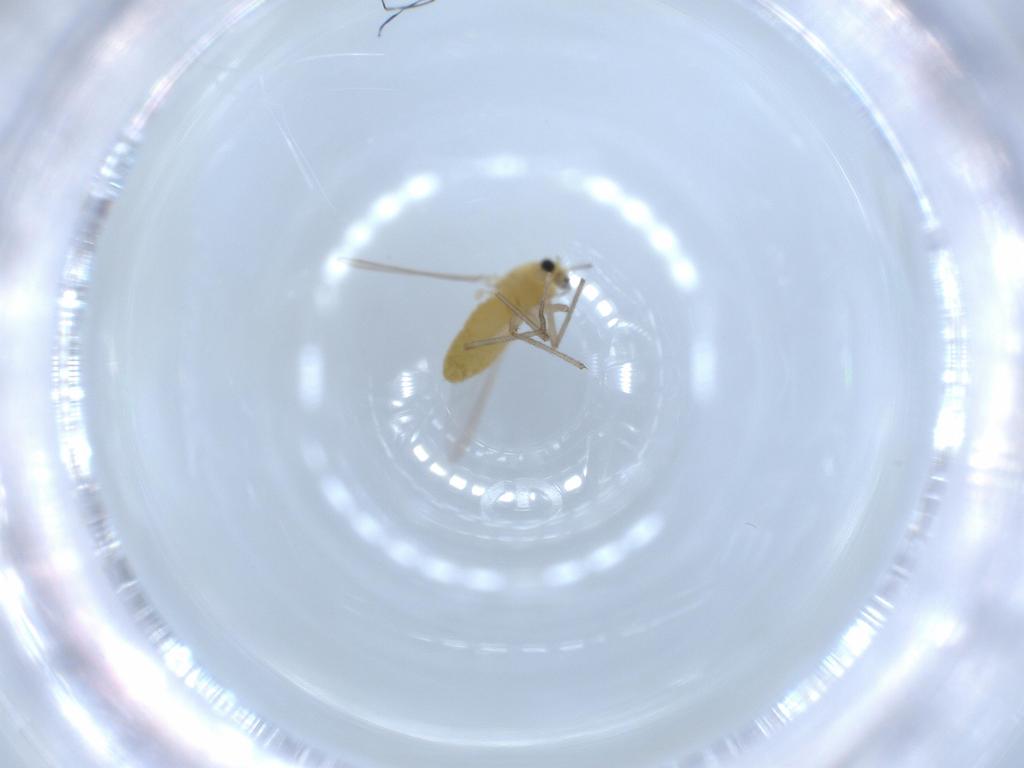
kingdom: Animalia
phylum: Arthropoda
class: Insecta
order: Diptera
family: Chironomidae
